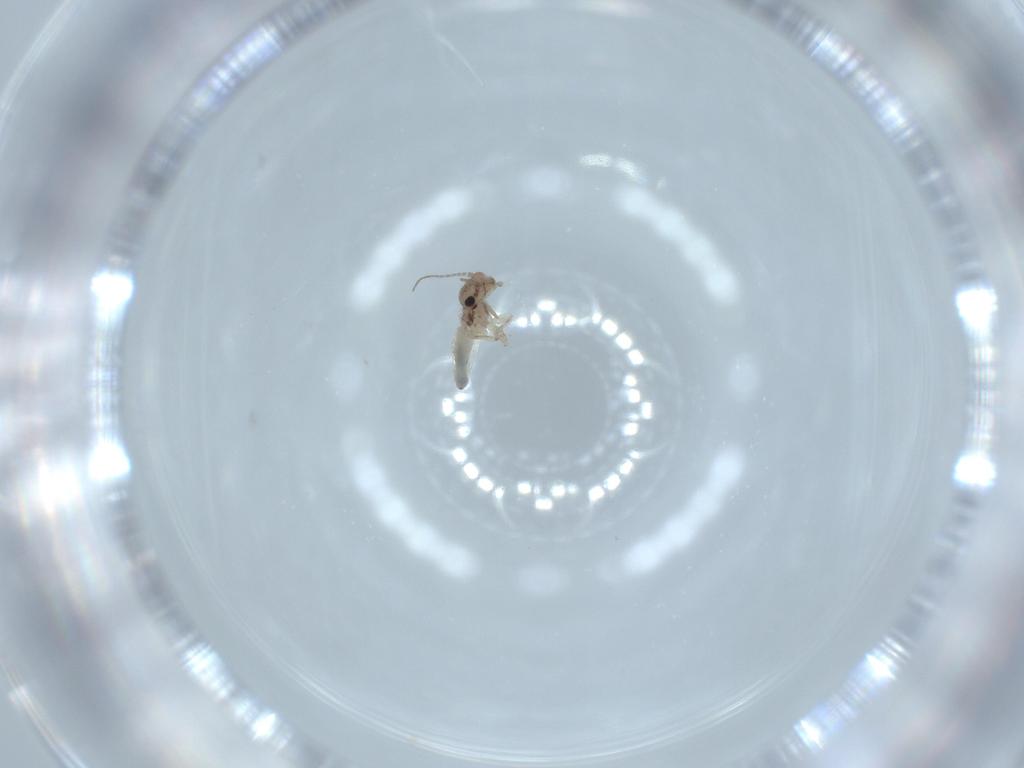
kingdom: Animalia
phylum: Arthropoda
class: Insecta
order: Psocodea
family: Lepidopsocidae
